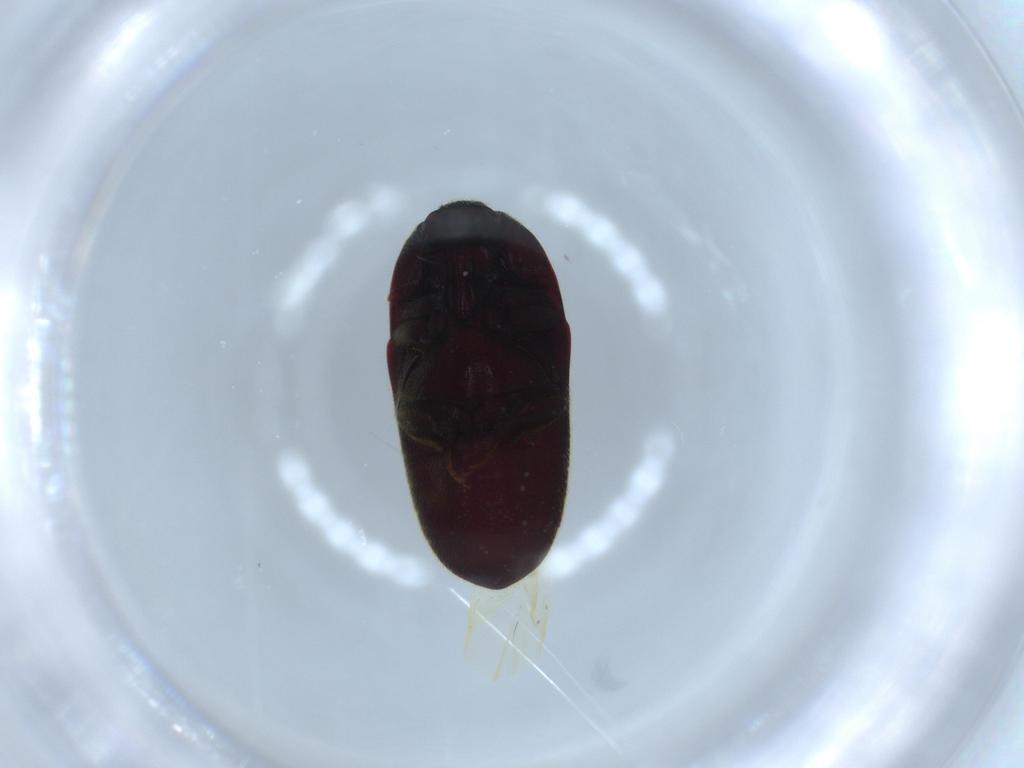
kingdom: Animalia
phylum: Arthropoda
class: Insecta
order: Coleoptera
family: Throscidae
